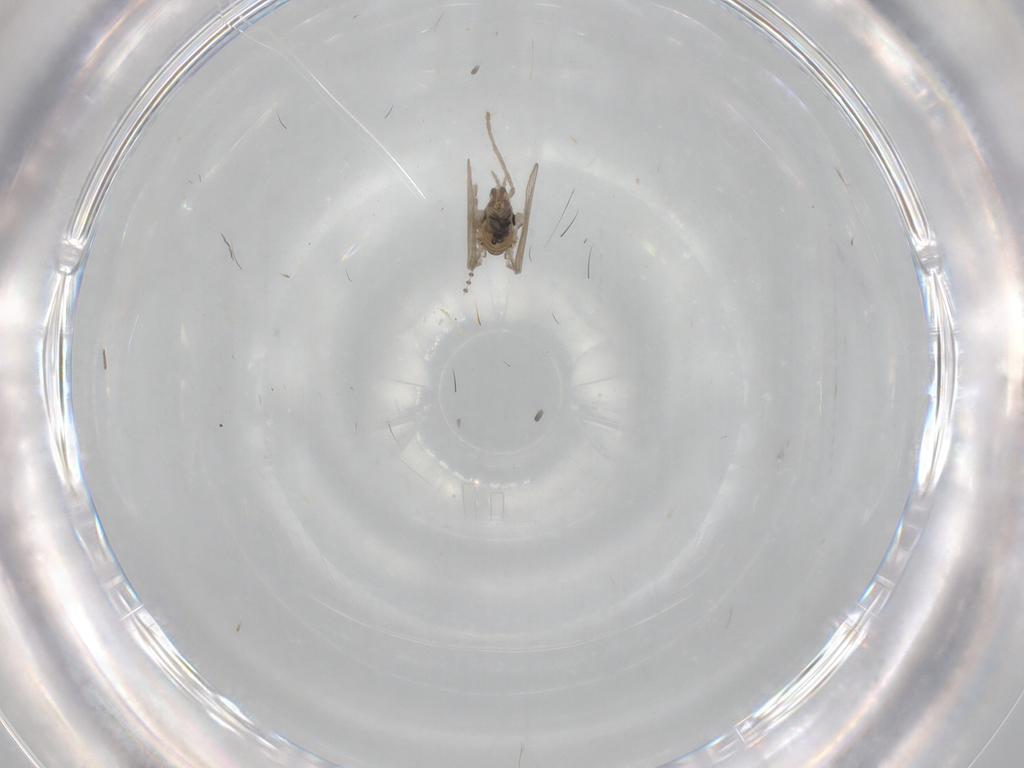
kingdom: Animalia
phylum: Arthropoda
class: Insecta
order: Diptera
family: Psychodidae
